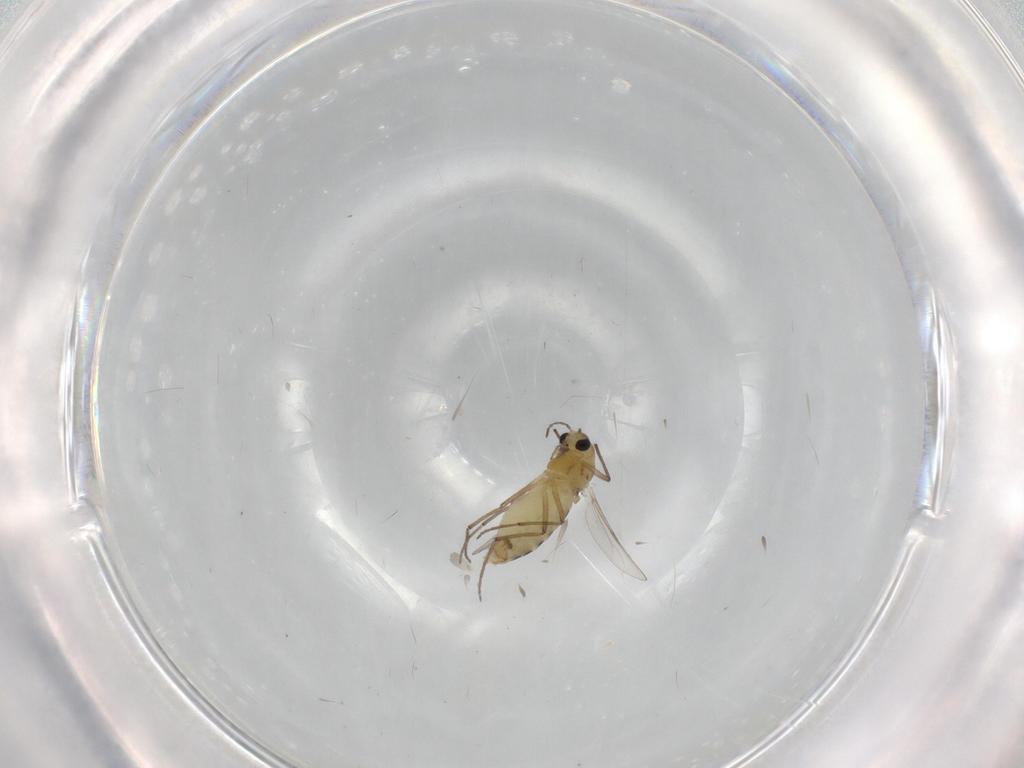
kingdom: Animalia
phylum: Arthropoda
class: Insecta
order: Diptera
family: Chironomidae
